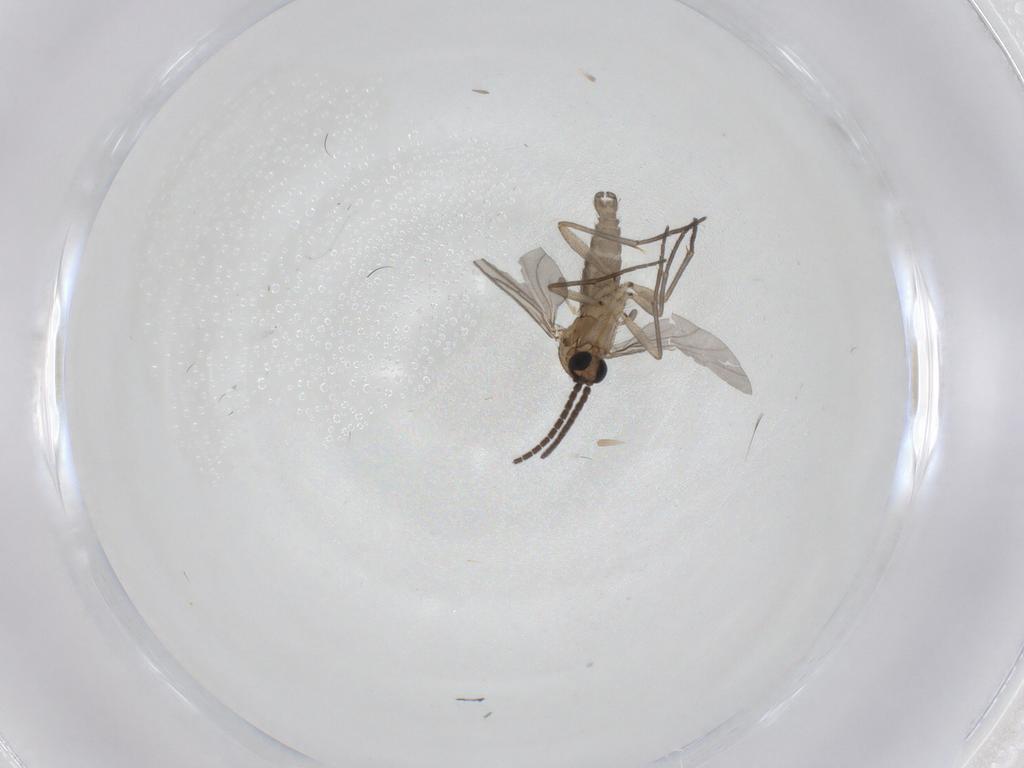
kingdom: Animalia
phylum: Arthropoda
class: Insecta
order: Diptera
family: Sciaridae
